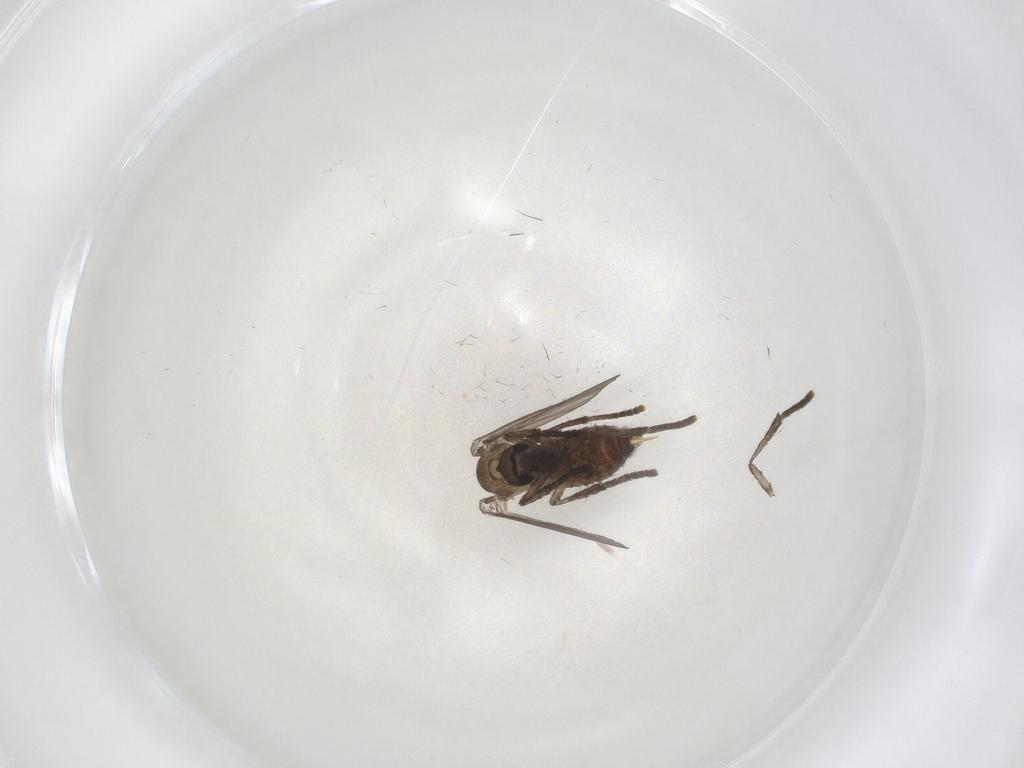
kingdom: Animalia
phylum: Arthropoda
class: Insecta
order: Diptera
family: Psychodidae
